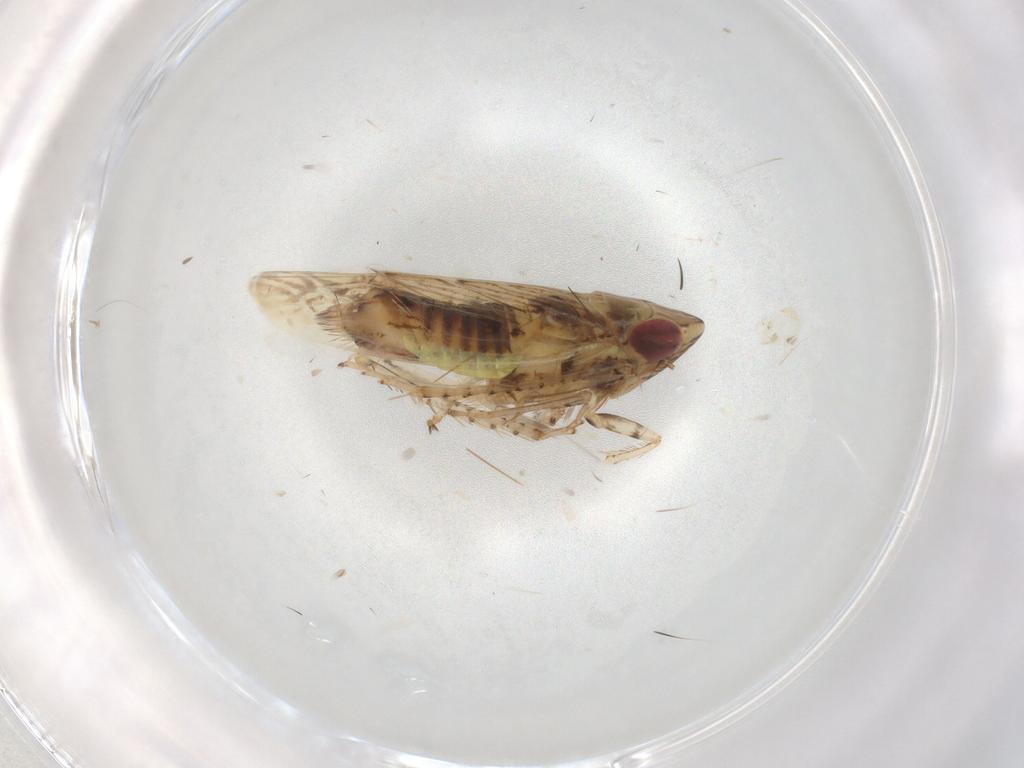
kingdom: Animalia
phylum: Arthropoda
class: Insecta
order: Hemiptera
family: Cicadellidae
